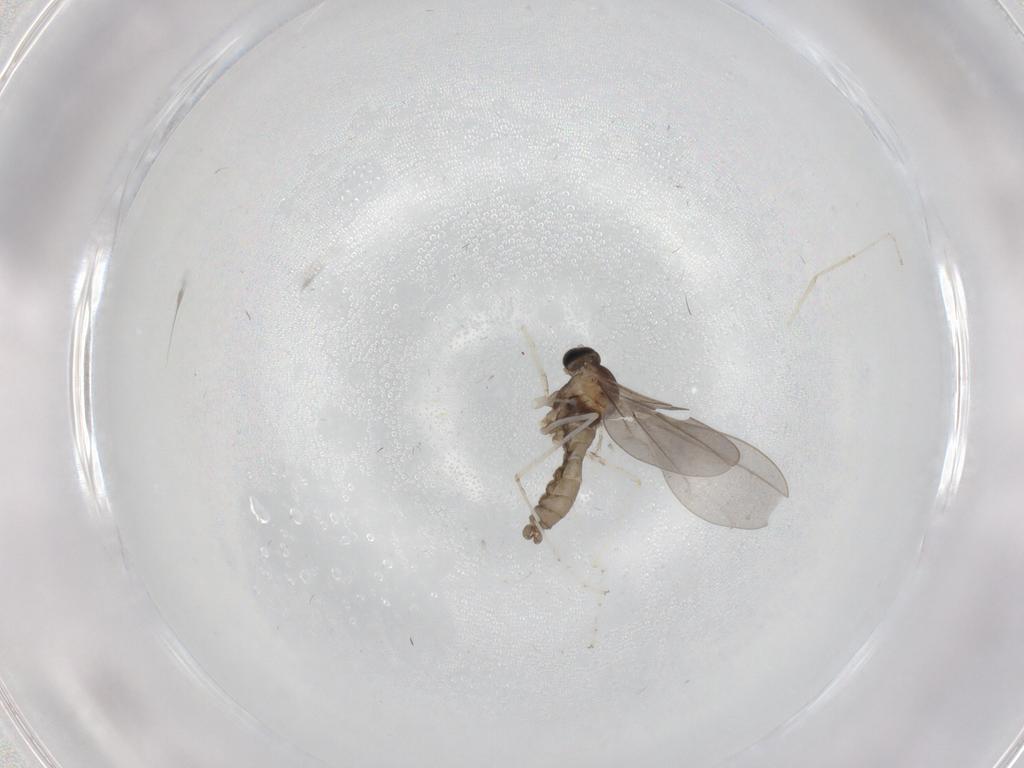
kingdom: Animalia
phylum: Arthropoda
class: Insecta
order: Diptera
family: Cecidomyiidae
